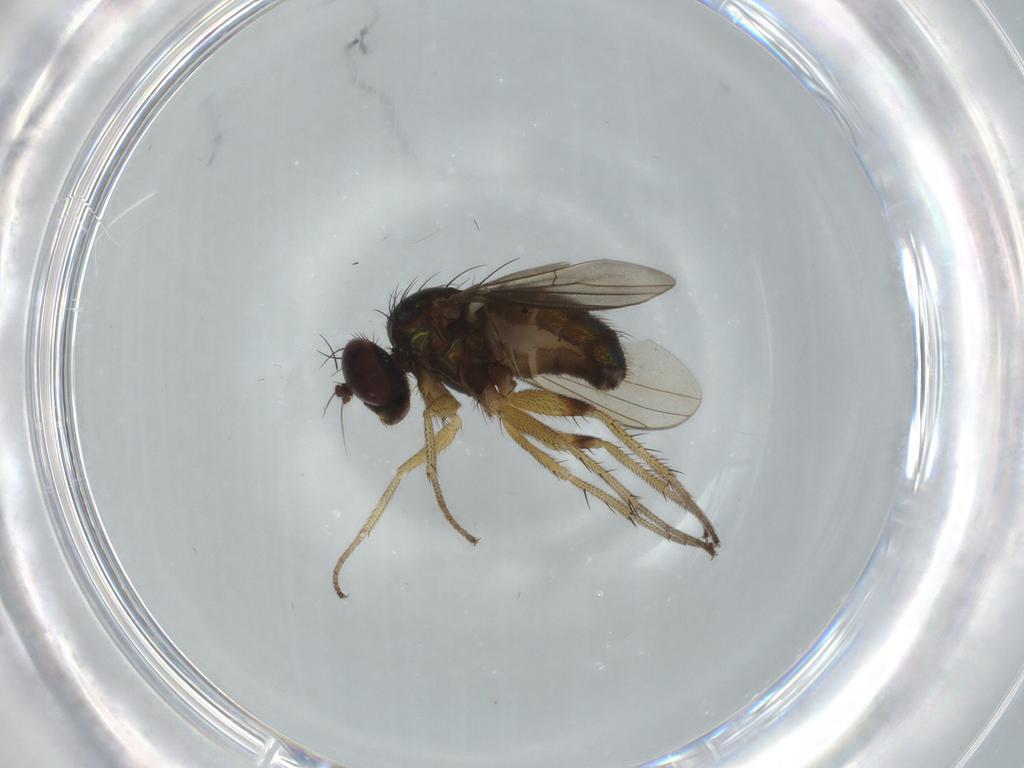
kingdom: Animalia
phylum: Arthropoda
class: Insecta
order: Diptera
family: Dolichopodidae
